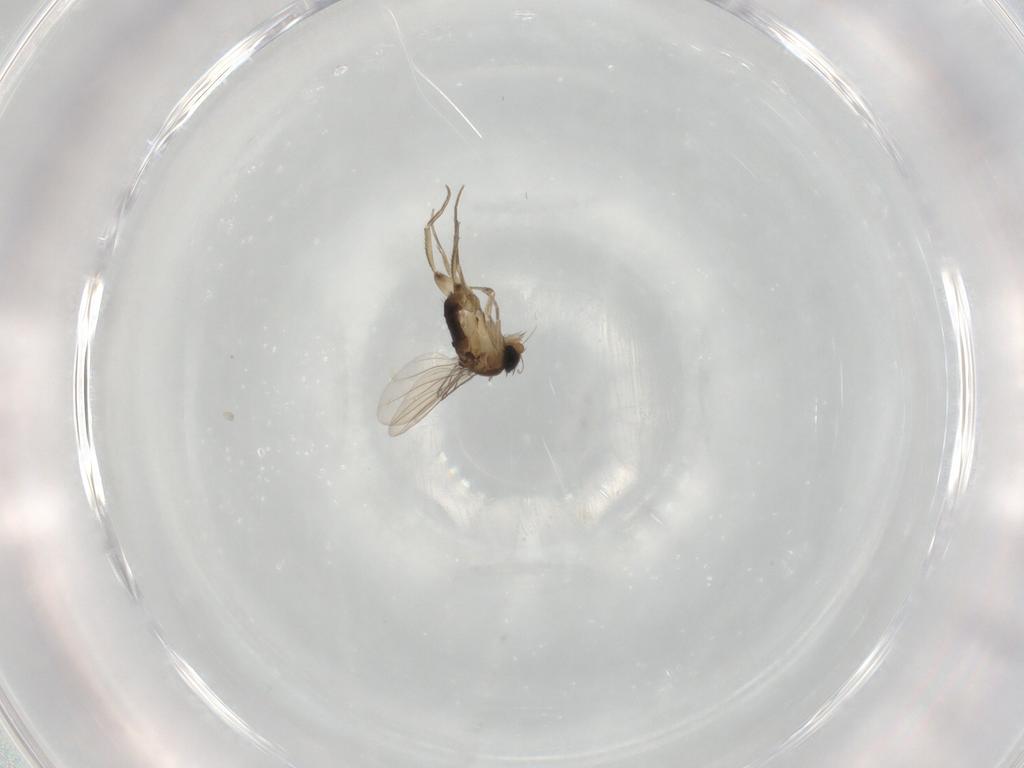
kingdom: Animalia
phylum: Arthropoda
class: Insecta
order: Diptera
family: Phoridae
